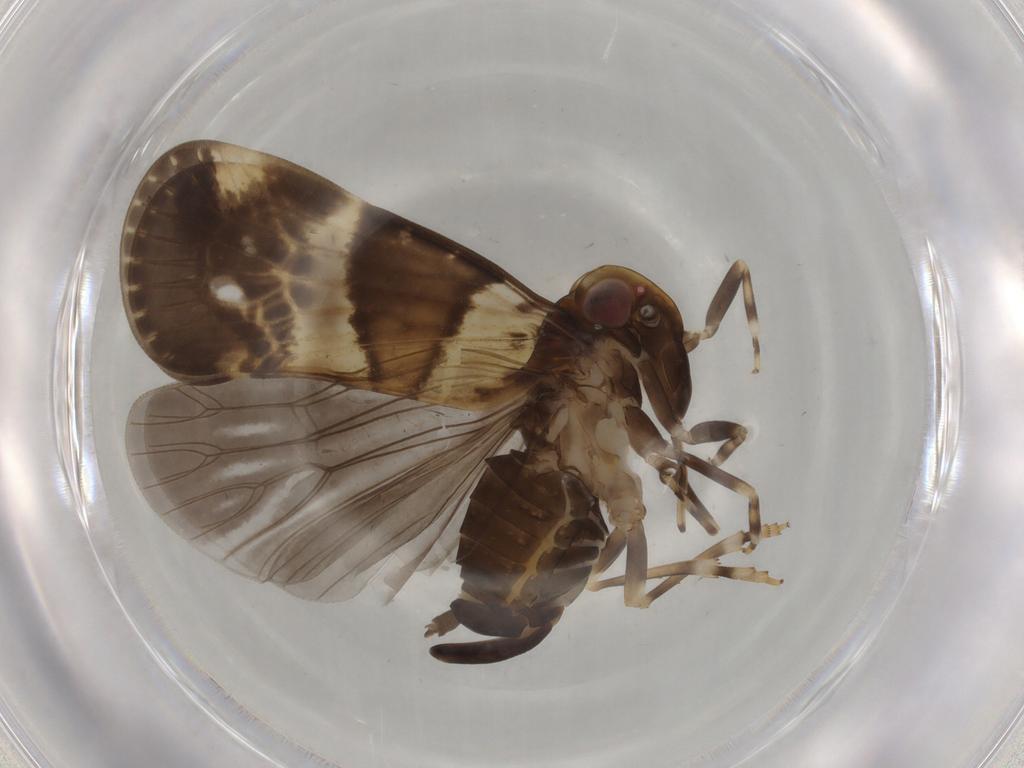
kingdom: Animalia
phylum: Arthropoda
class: Insecta
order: Hemiptera
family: Cixiidae
